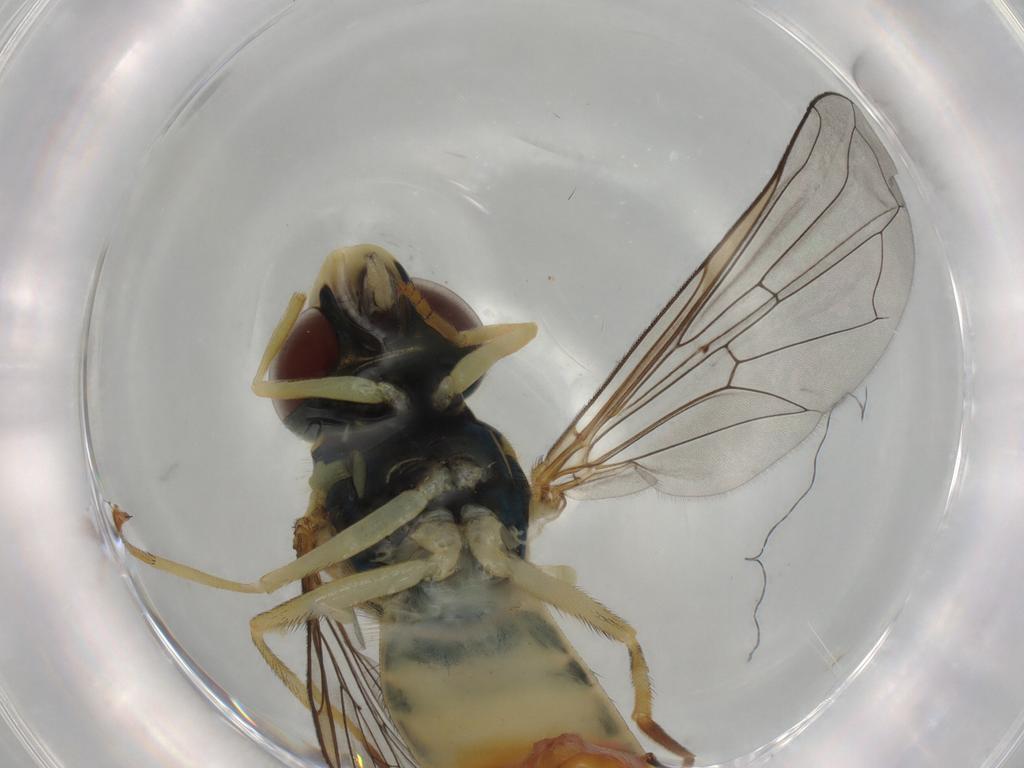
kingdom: Animalia
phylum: Arthropoda
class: Insecta
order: Diptera
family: Syrphidae
